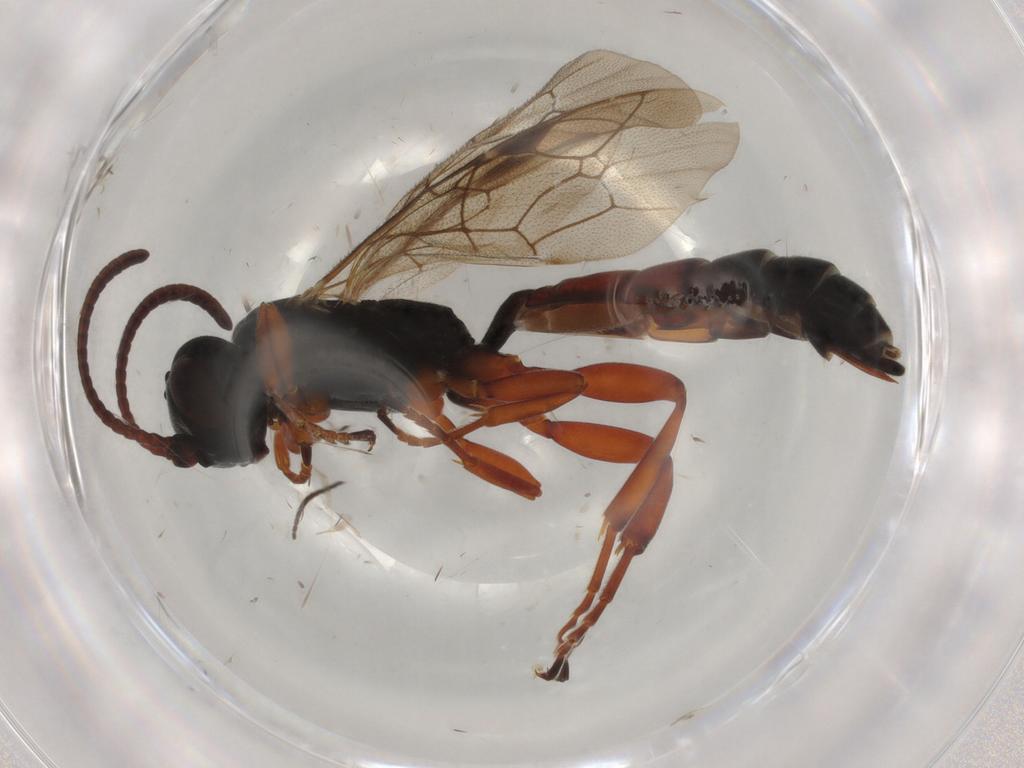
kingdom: Animalia
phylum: Arthropoda
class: Insecta
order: Hymenoptera
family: Ichneumonidae
